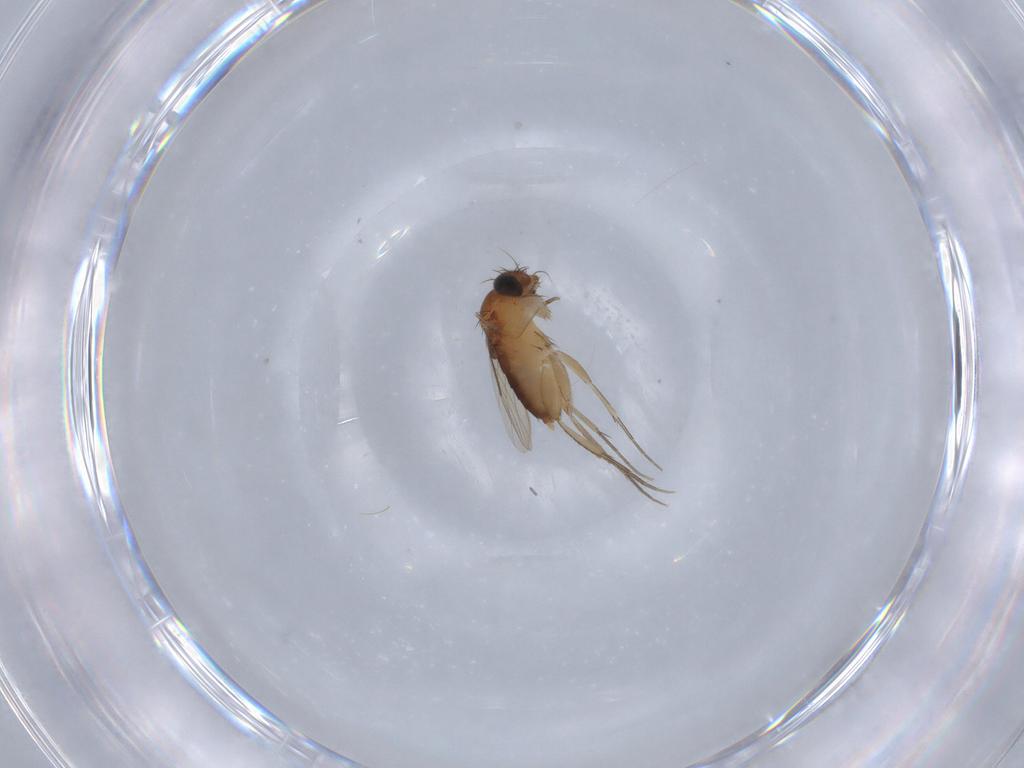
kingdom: Animalia
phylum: Arthropoda
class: Insecta
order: Diptera
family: Phoridae
